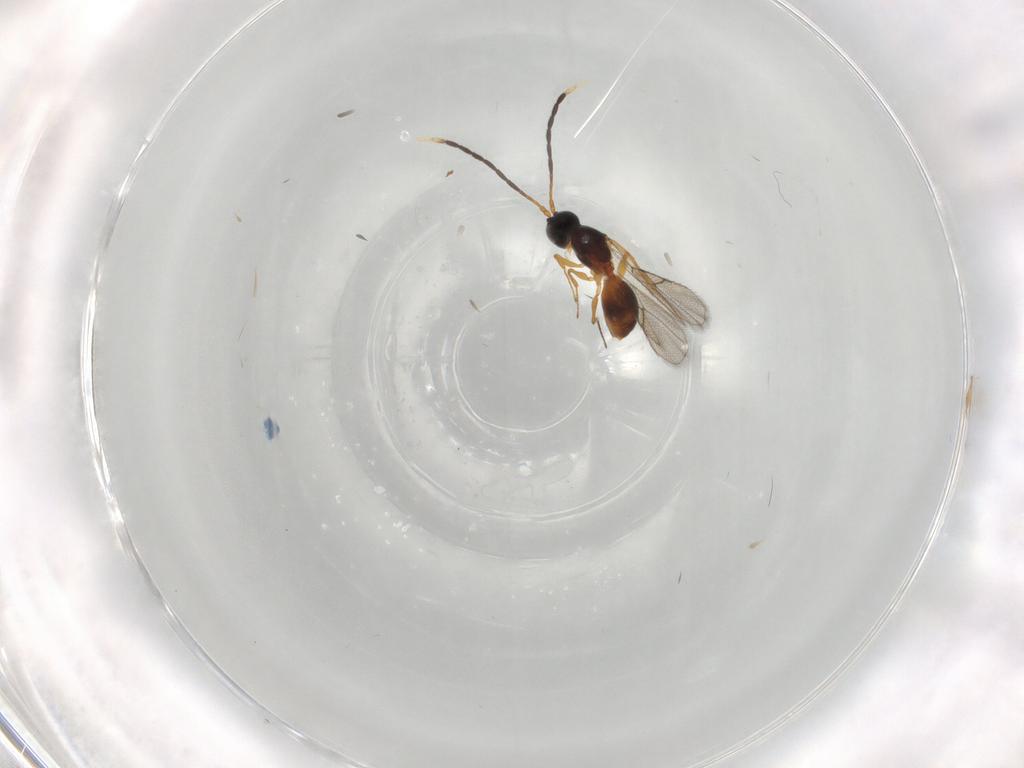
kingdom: Animalia
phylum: Arthropoda
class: Insecta
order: Hymenoptera
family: Figitidae
